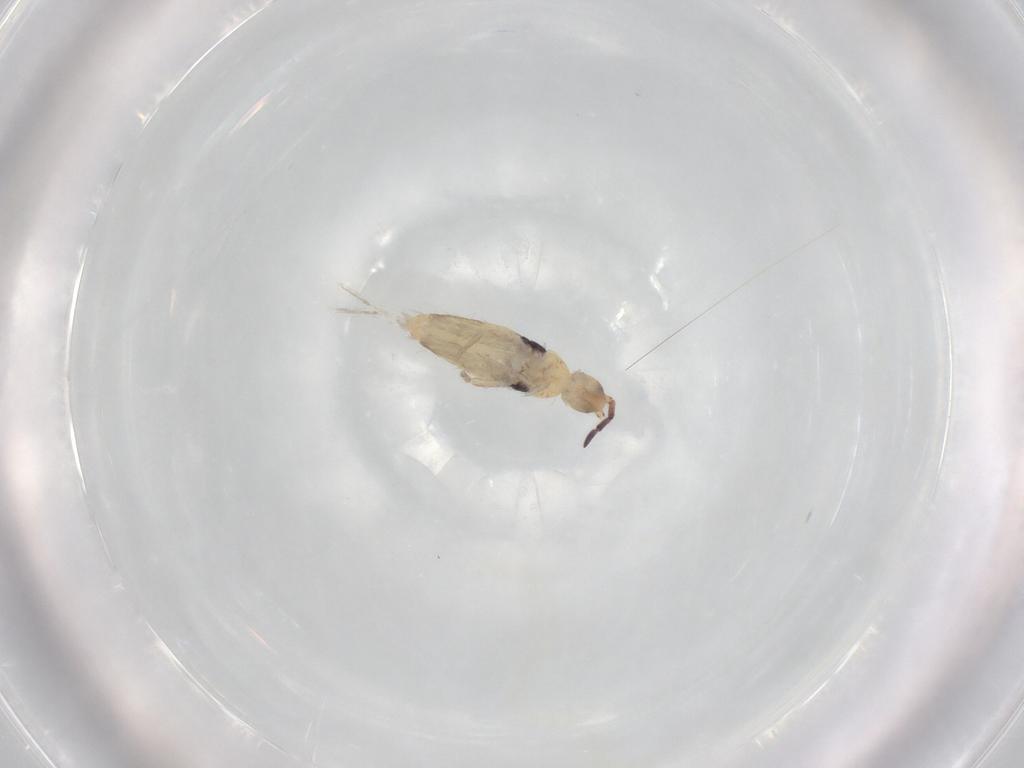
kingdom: Animalia
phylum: Arthropoda
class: Collembola
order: Entomobryomorpha
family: Entomobryidae
